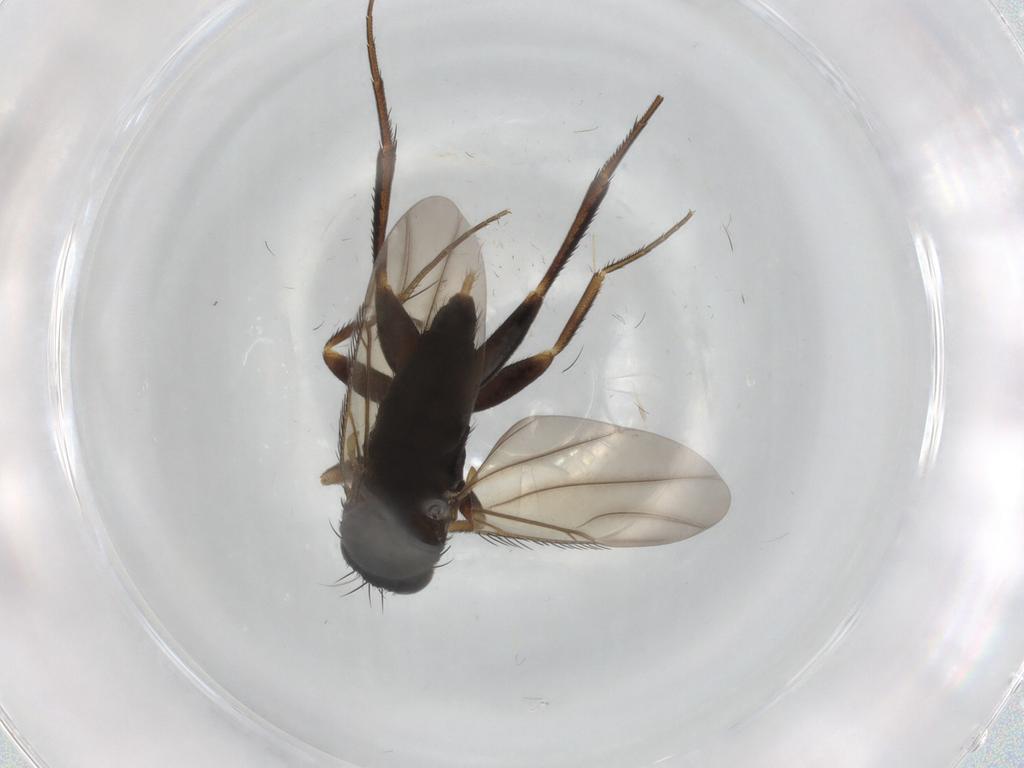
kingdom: Animalia
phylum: Arthropoda
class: Insecta
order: Diptera
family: Phoridae
